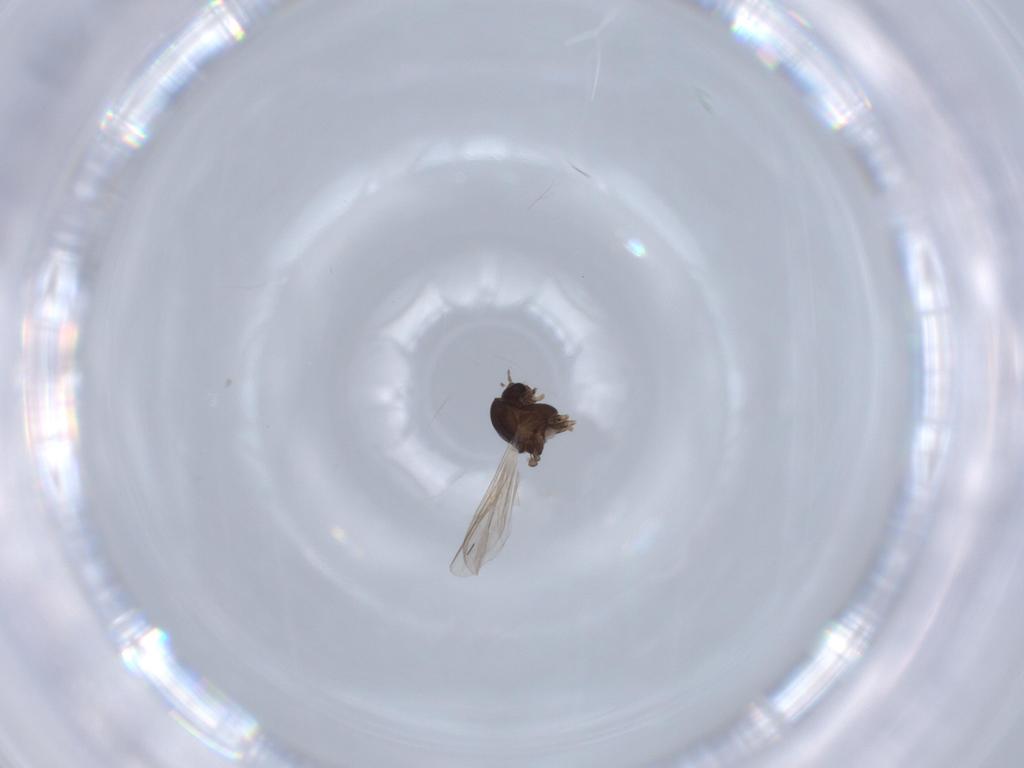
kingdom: Animalia
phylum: Arthropoda
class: Insecta
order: Diptera
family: Chironomidae
